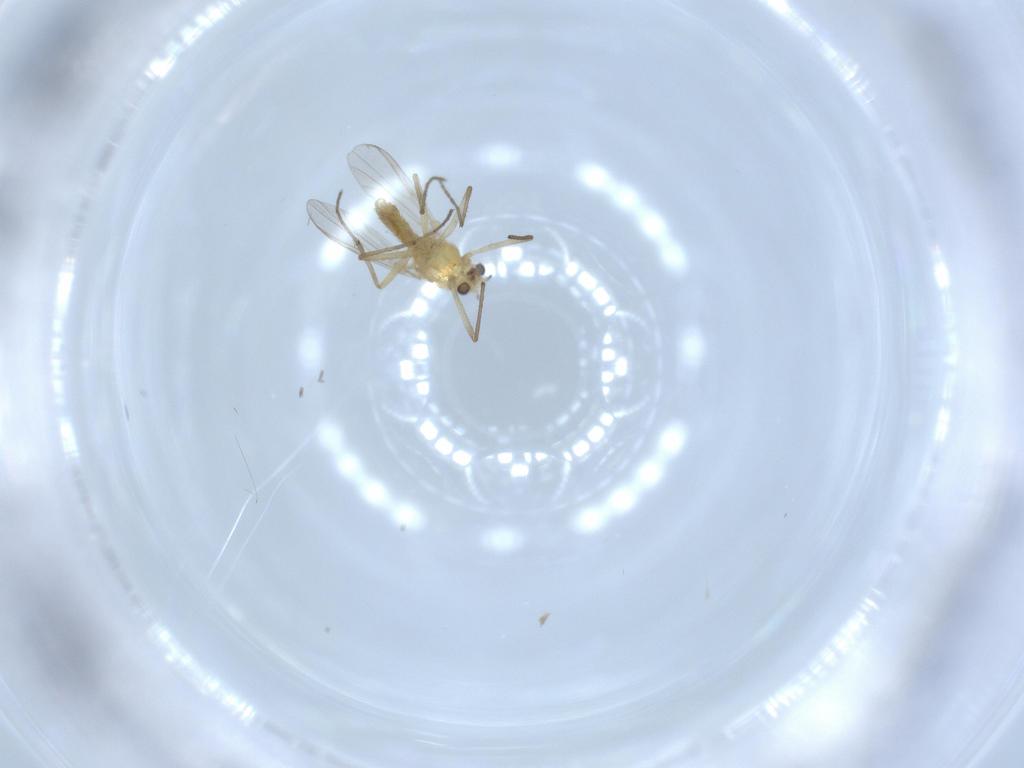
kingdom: Animalia
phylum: Arthropoda
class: Insecta
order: Diptera
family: Chironomidae
